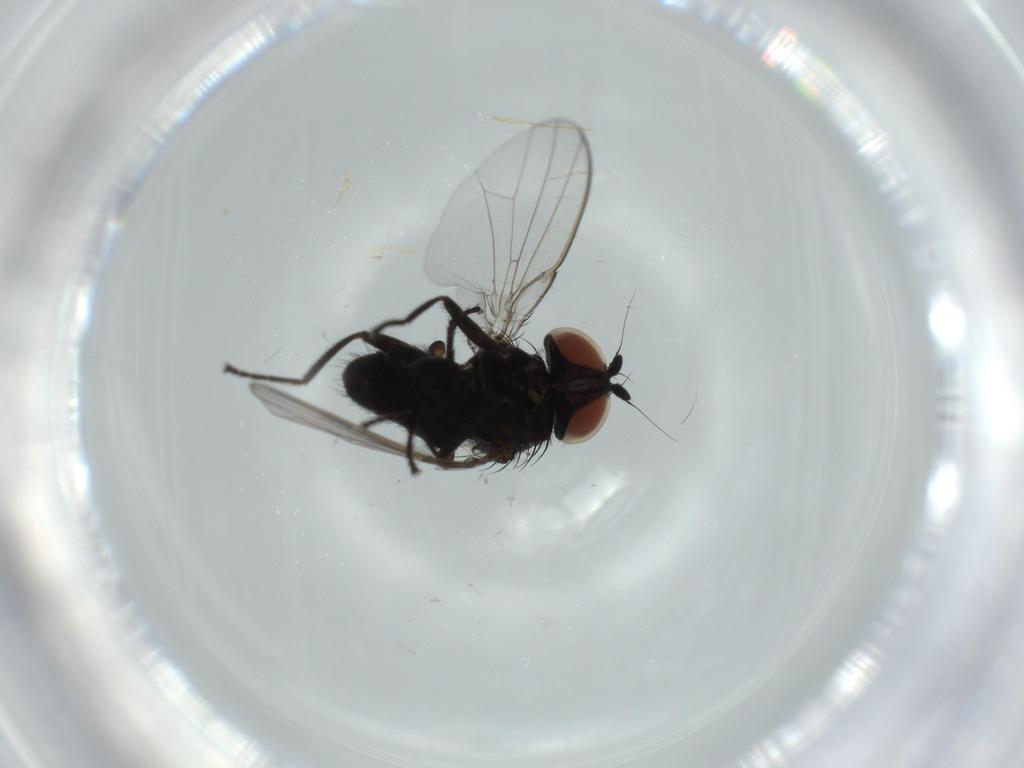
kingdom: Animalia
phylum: Arthropoda
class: Insecta
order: Diptera
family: Milichiidae
